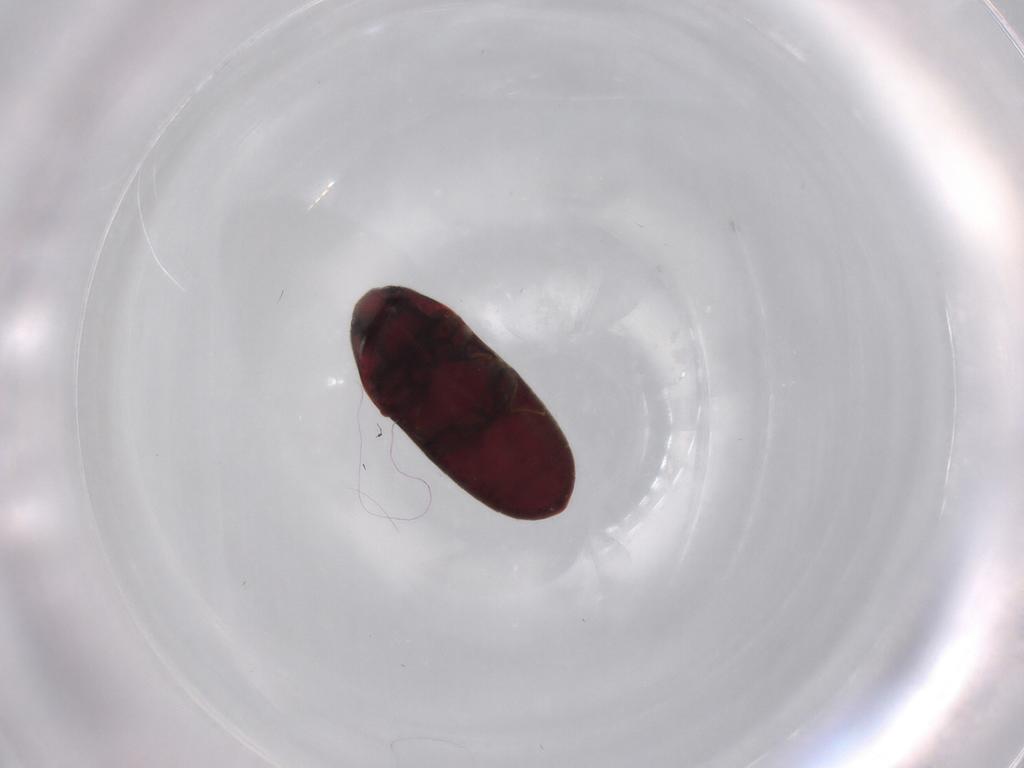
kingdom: Animalia
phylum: Arthropoda
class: Insecta
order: Coleoptera
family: Throscidae
